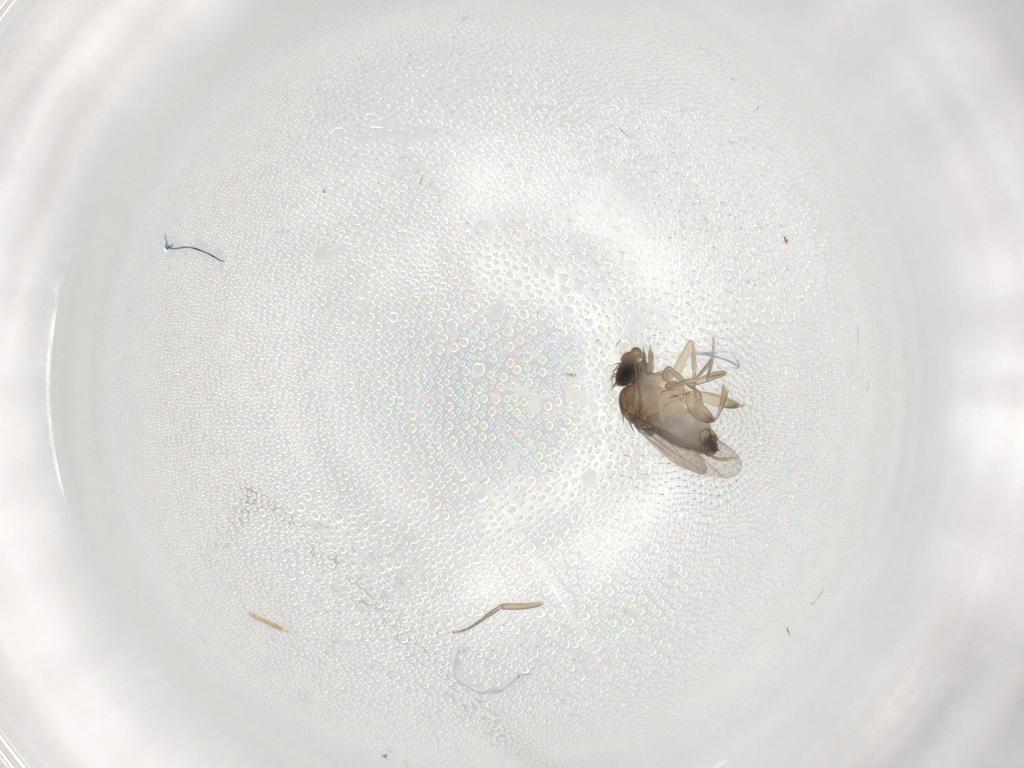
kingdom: Animalia
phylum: Arthropoda
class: Insecta
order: Diptera
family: Phoridae
